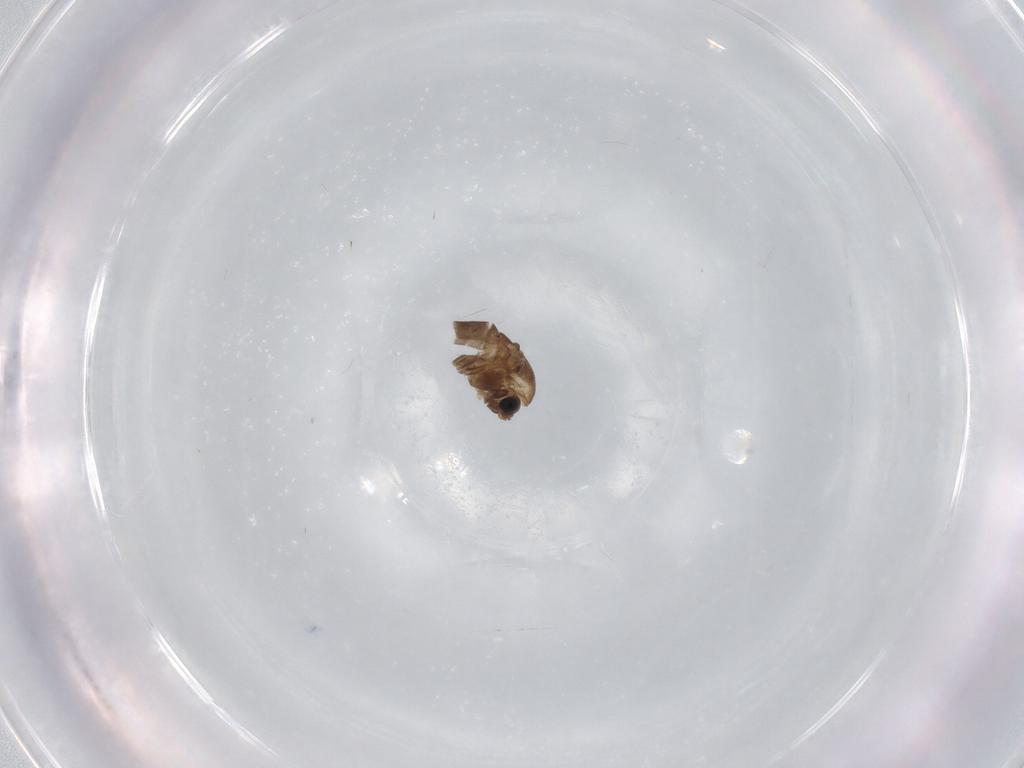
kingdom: Animalia
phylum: Arthropoda
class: Insecta
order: Diptera
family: Chironomidae
